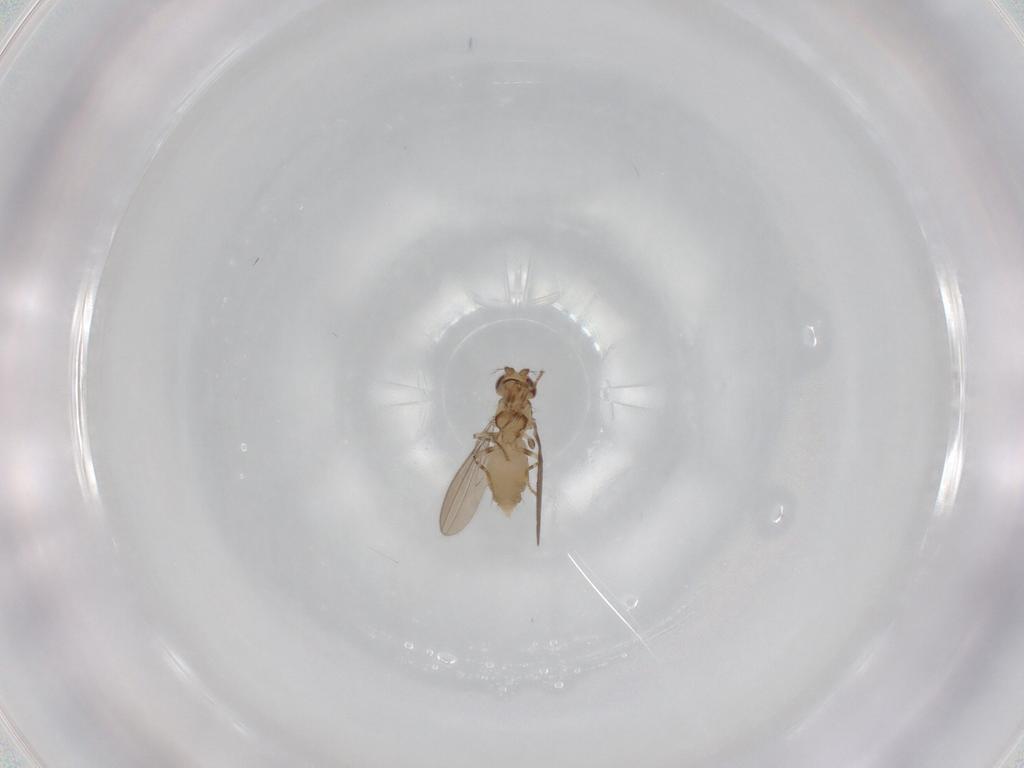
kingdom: Animalia
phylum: Arthropoda
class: Insecta
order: Diptera
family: Asteiidae
